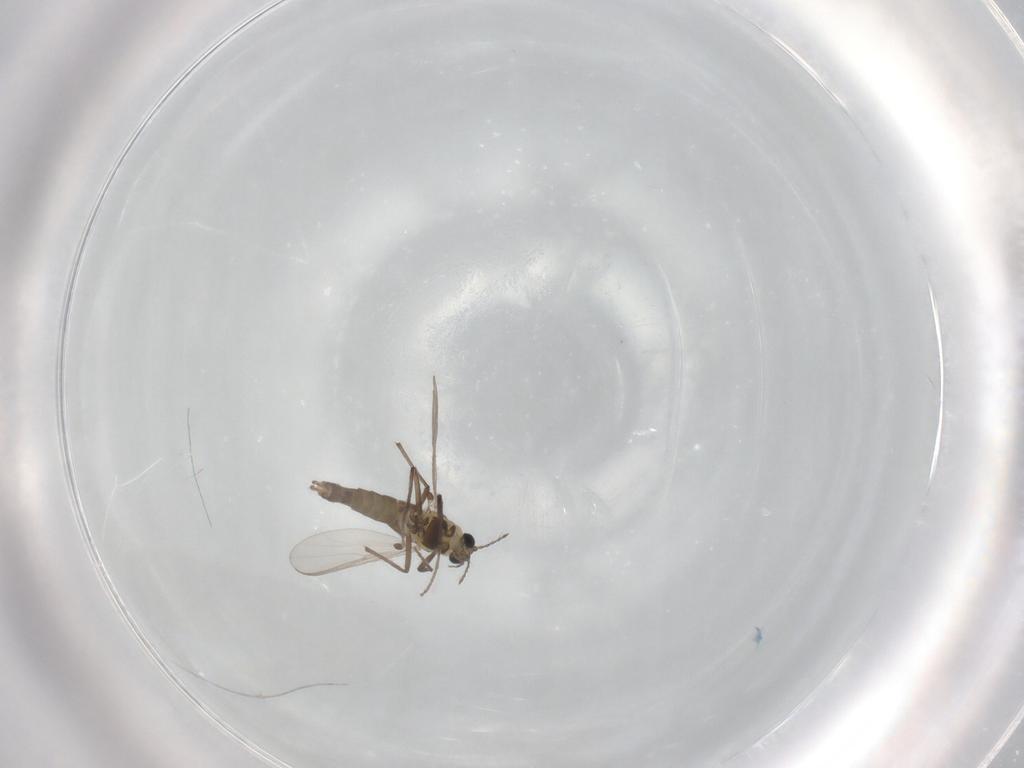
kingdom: Animalia
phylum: Arthropoda
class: Insecta
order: Diptera
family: Chironomidae
